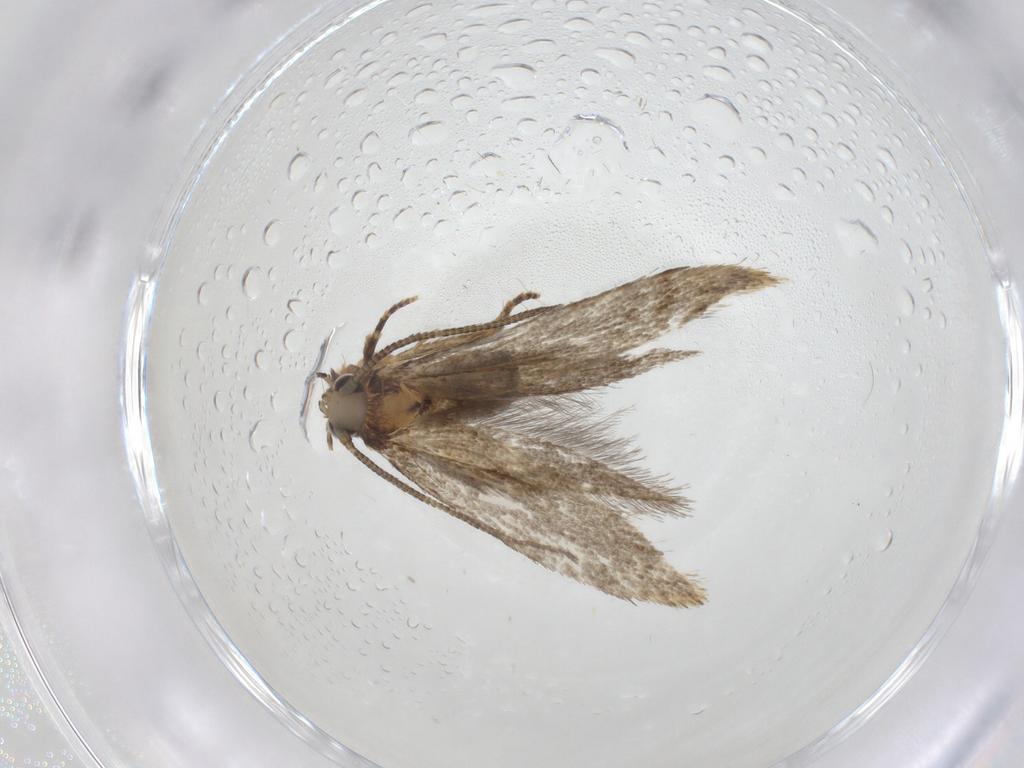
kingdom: Animalia
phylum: Arthropoda
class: Insecta
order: Lepidoptera
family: Tineidae
